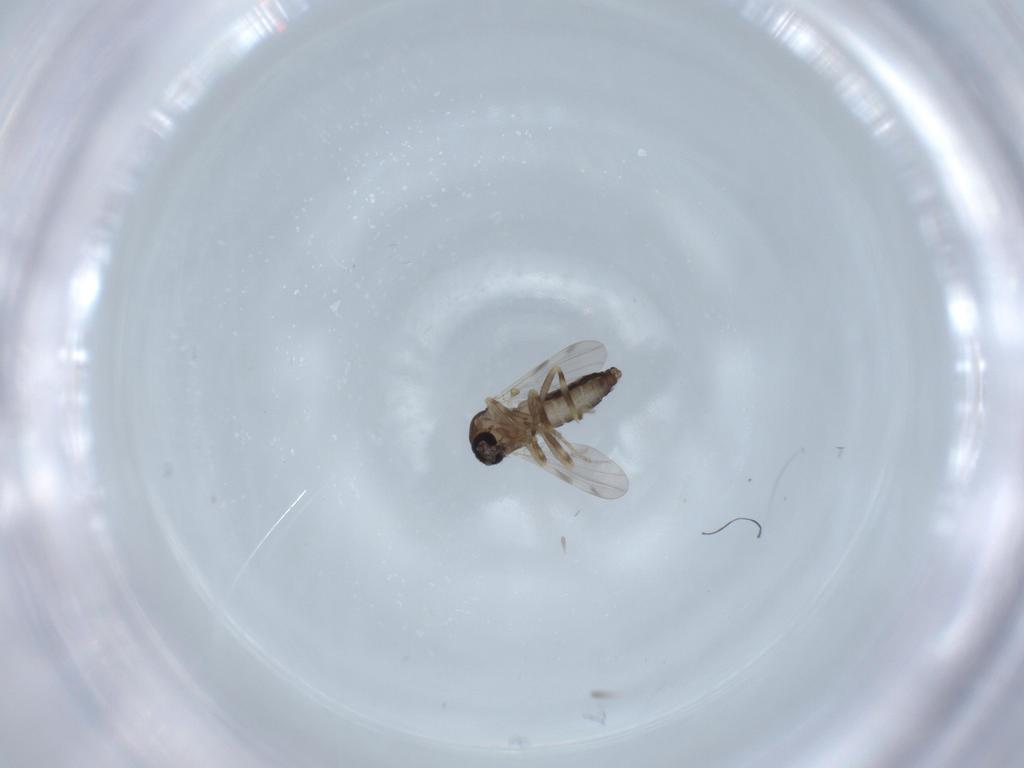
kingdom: Animalia
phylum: Arthropoda
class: Insecta
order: Diptera
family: Ceratopogonidae
